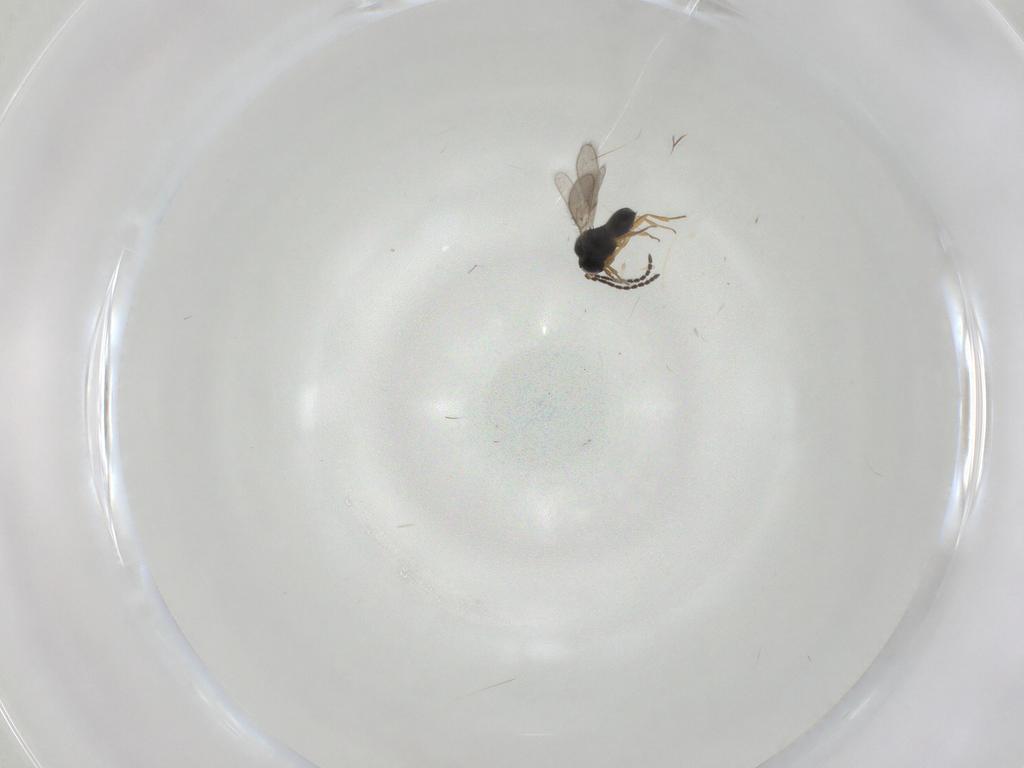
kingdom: Animalia
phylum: Arthropoda
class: Insecta
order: Hymenoptera
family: Scelionidae
